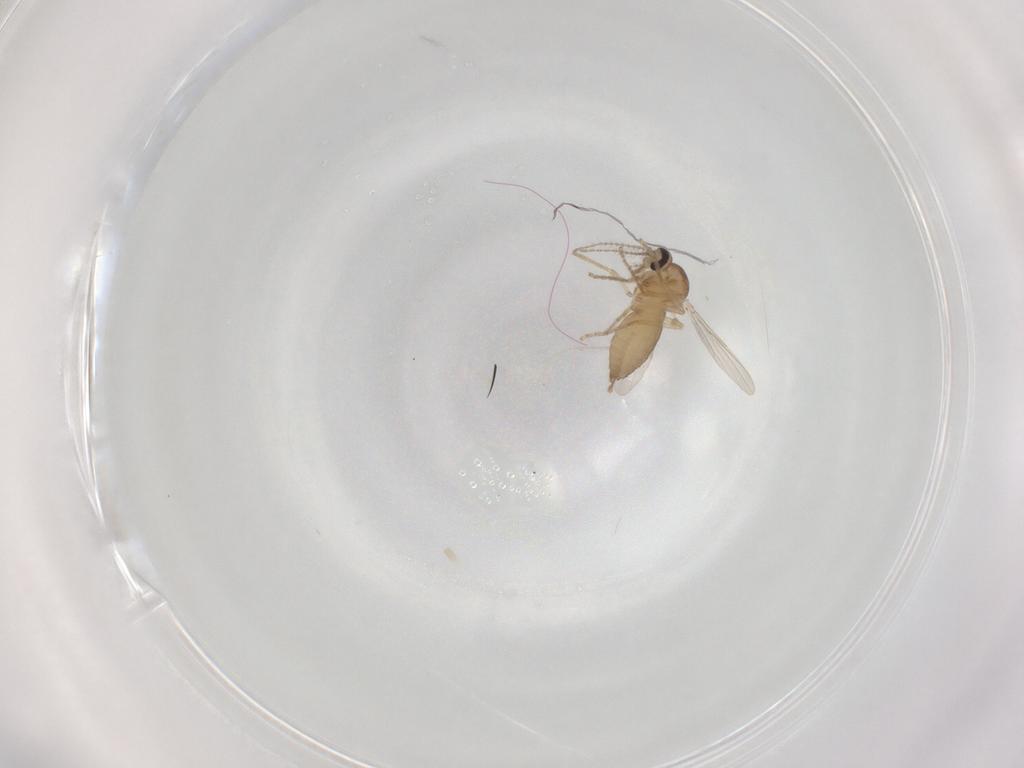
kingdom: Animalia
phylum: Arthropoda
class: Insecta
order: Diptera
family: Ceratopogonidae
